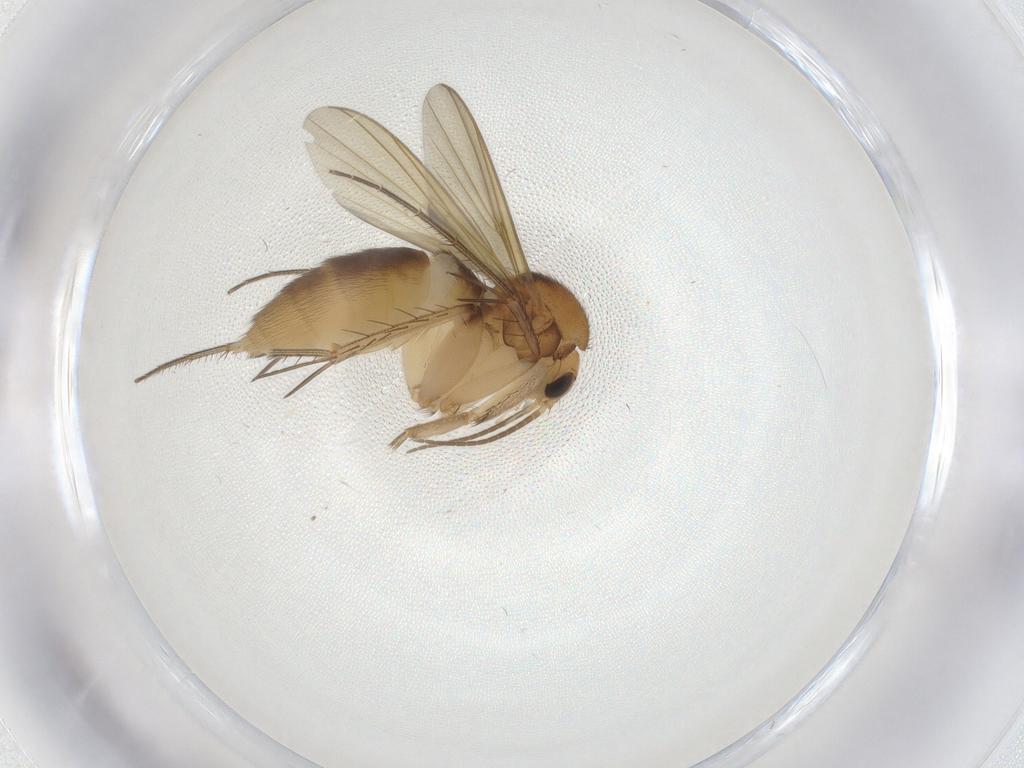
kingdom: Animalia
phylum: Arthropoda
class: Insecta
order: Diptera
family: Mycetophilidae
